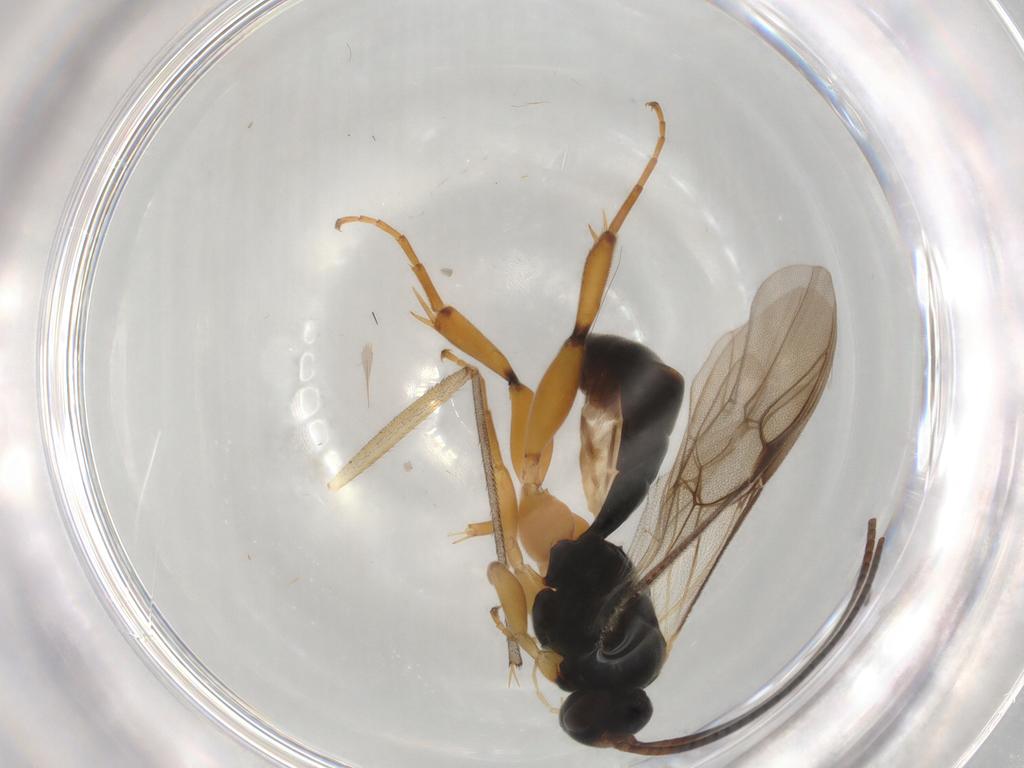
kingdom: Animalia
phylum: Arthropoda
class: Insecta
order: Hymenoptera
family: Ichneumonidae
